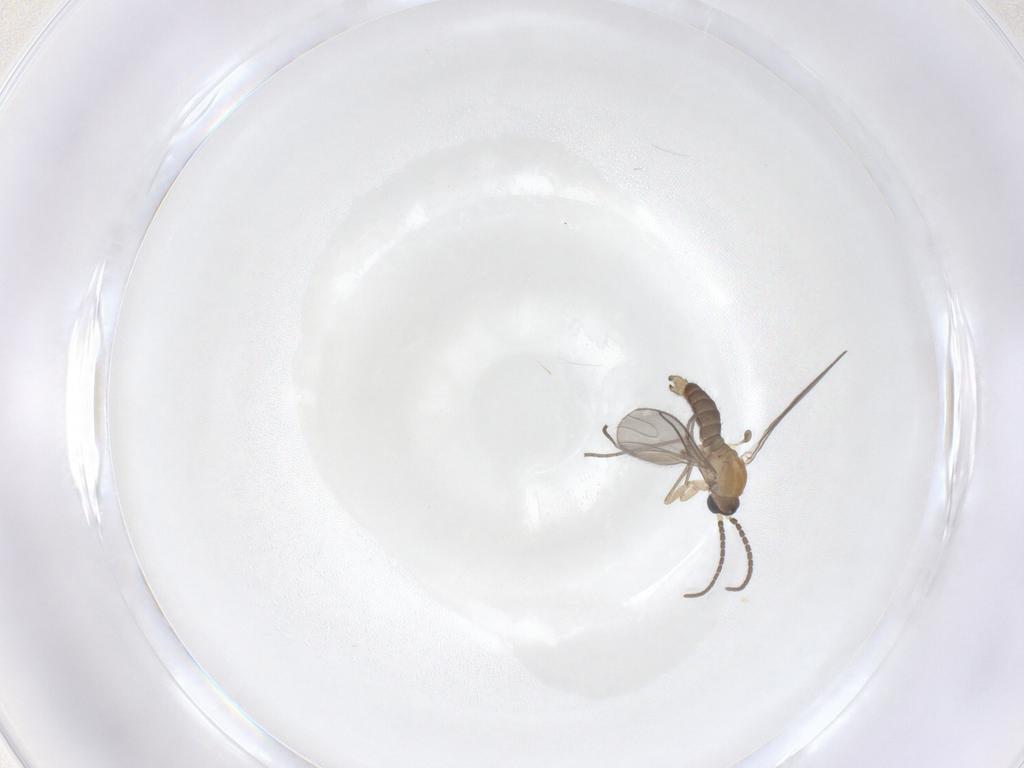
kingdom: Animalia
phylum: Arthropoda
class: Insecta
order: Diptera
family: Sciaridae
